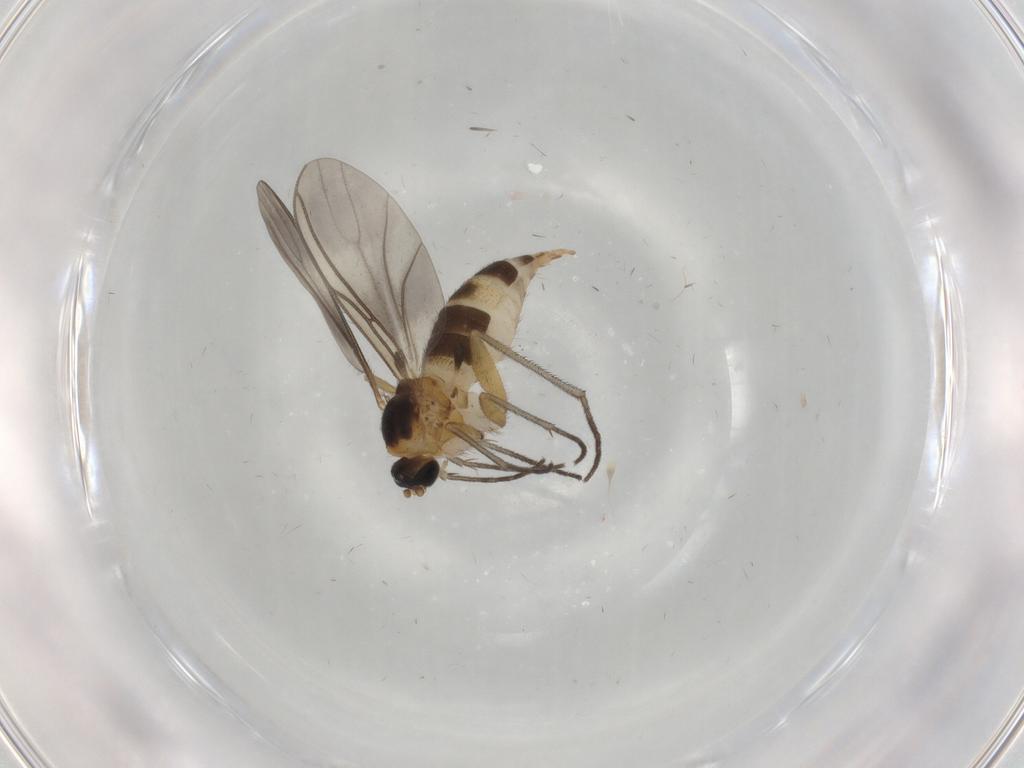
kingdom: Animalia
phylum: Arthropoda
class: Insecta
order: Diptera
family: Sciaridae
